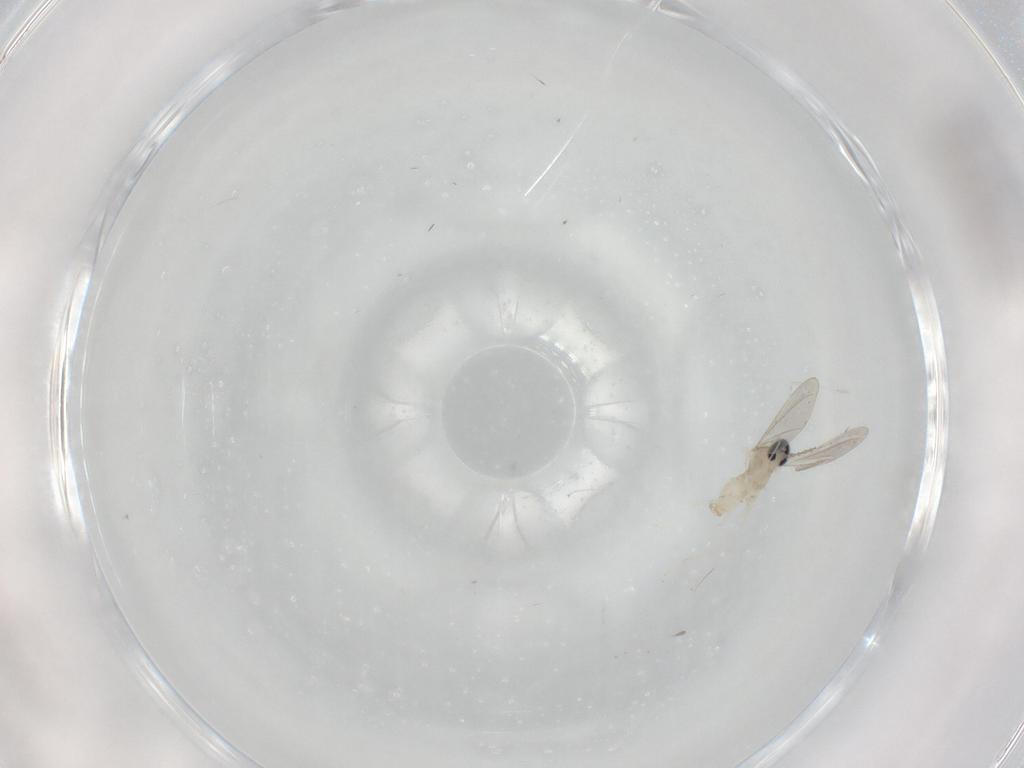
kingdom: Animalia
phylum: Arthropoda
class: Insecta
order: Diptera
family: Cecidomyiidae
